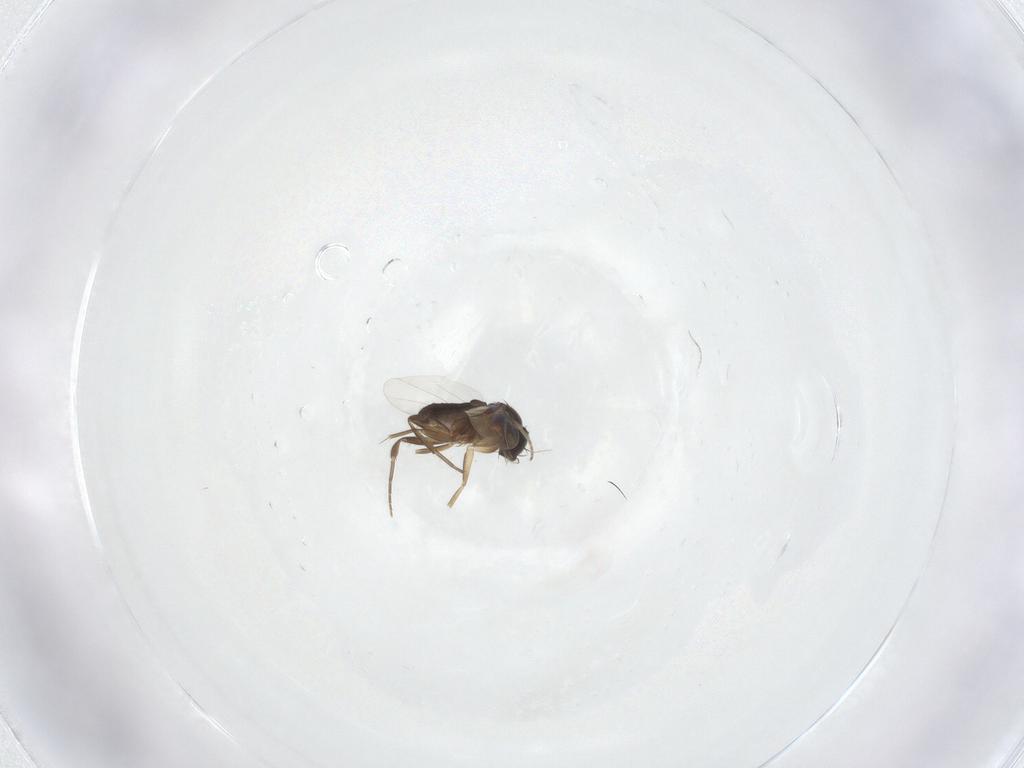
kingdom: Animalia
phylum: Arthropoda
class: Insecta
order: Diptera
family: Phoridae
